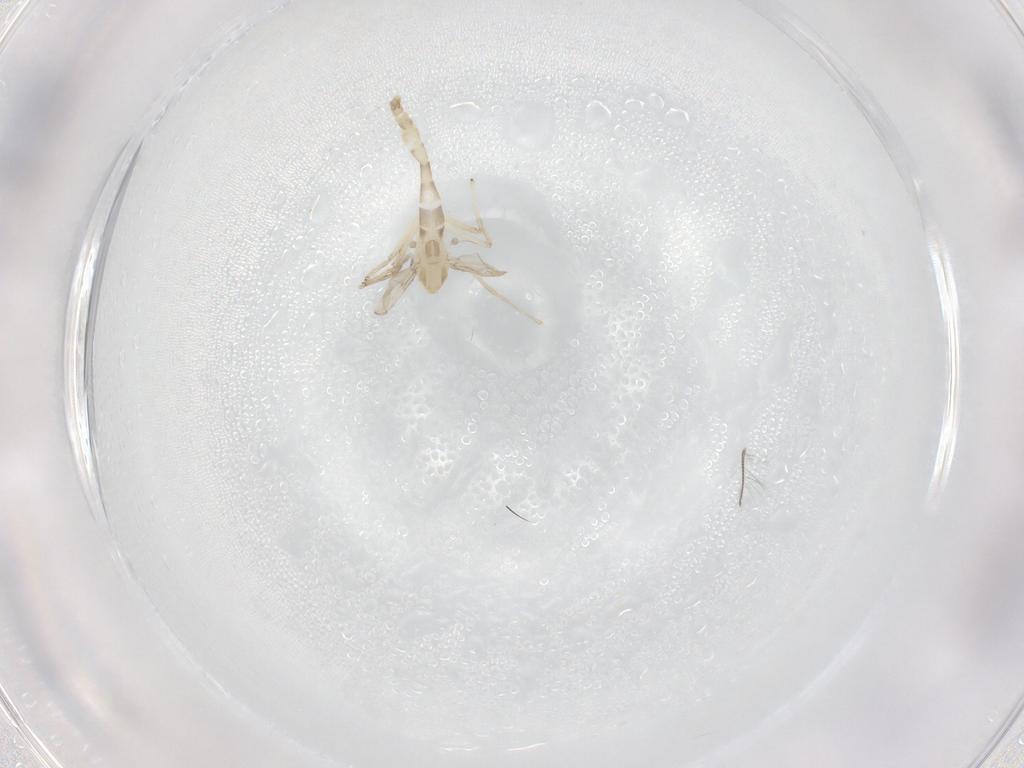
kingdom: Animalia
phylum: Arthropoda
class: Insecta
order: Diptera
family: Chironomidae
